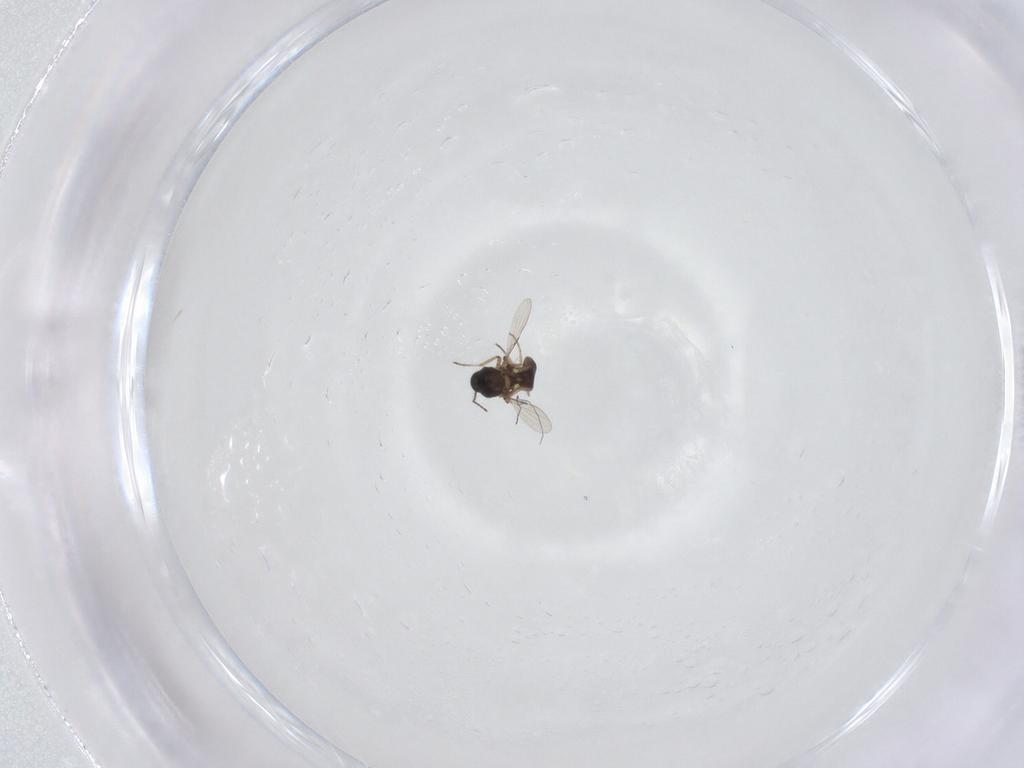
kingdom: Animalia
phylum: Arthropoda
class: Insecta
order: Diptera
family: Ceratopogonidae
